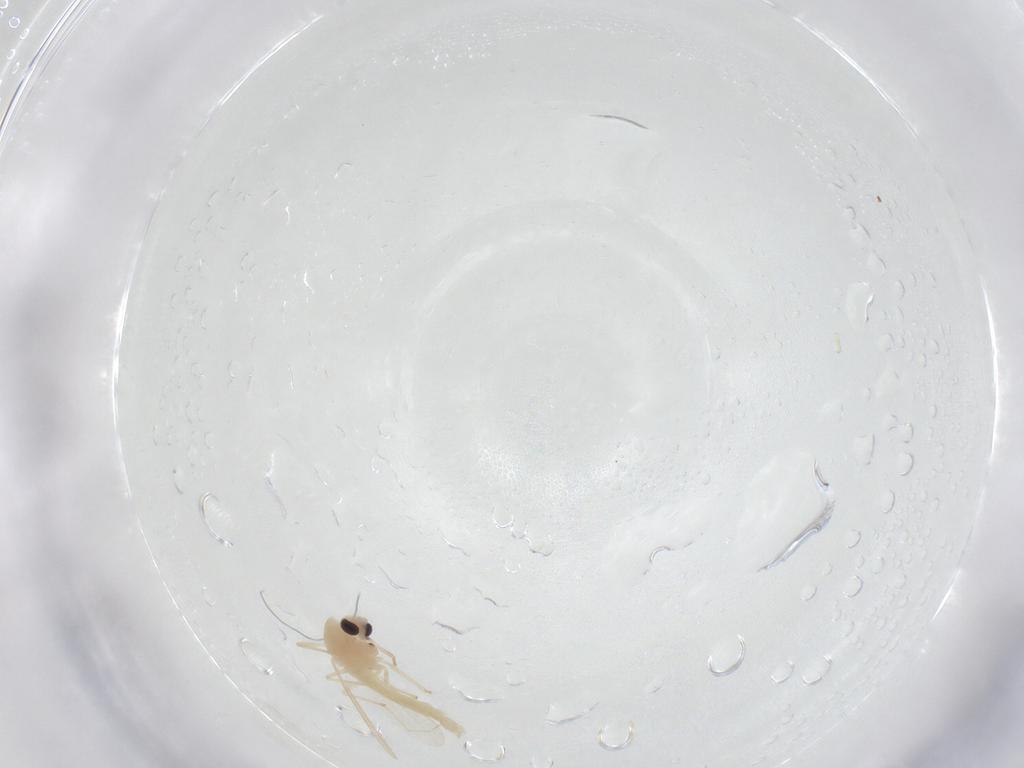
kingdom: Animalia
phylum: Arthropoda
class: Insecta
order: Diptera
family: Chironomidae
